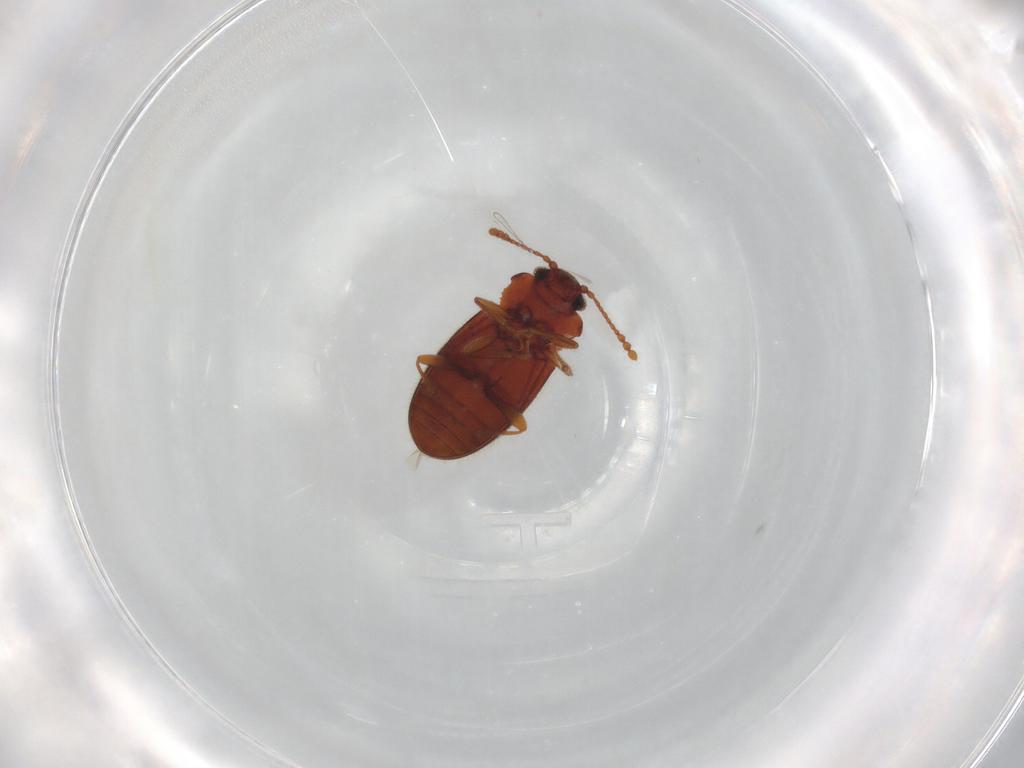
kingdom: Animalia
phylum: Arthropoda
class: Insecta
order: Coleoptera
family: Cryptophagidae
